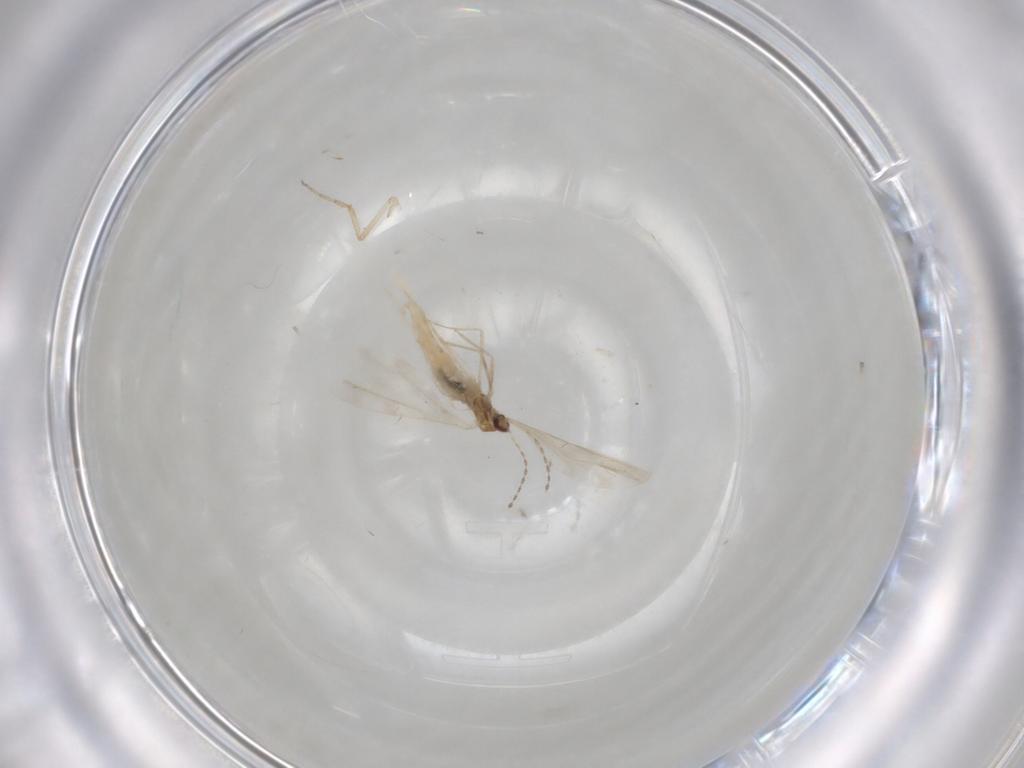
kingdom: Animalia
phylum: Arthropoda
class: Insecta
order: Diptera
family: Cecidomyiidae
